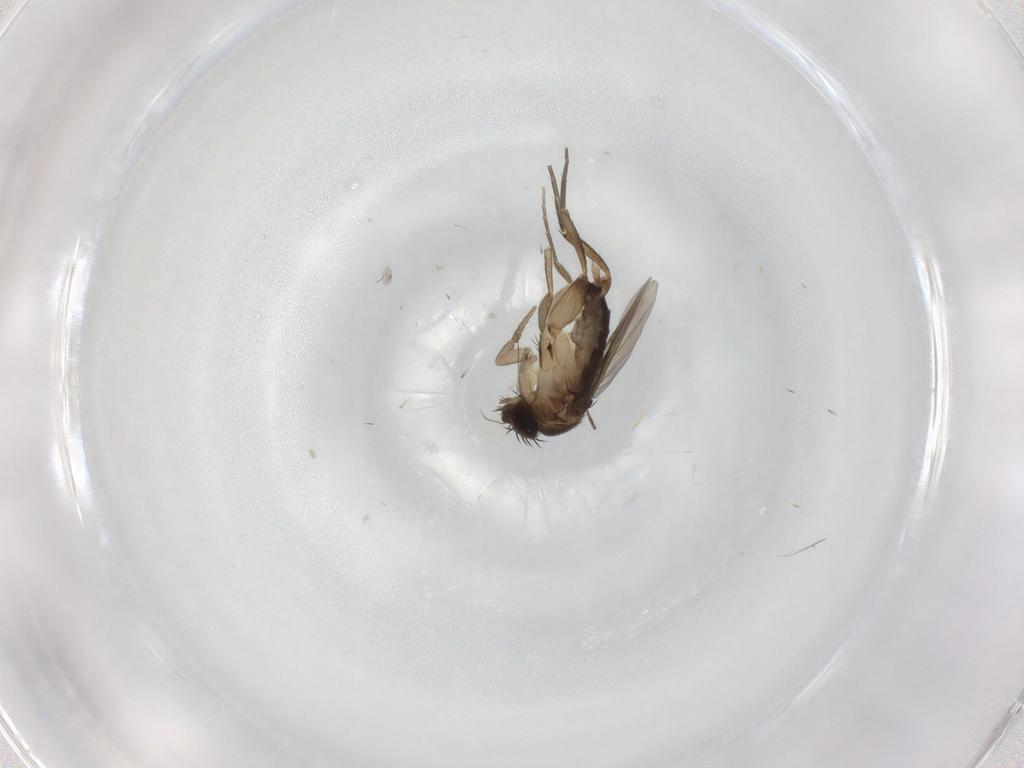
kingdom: Animalia
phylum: Arthropoda
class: Insecta
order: Diptera
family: Phoridae
